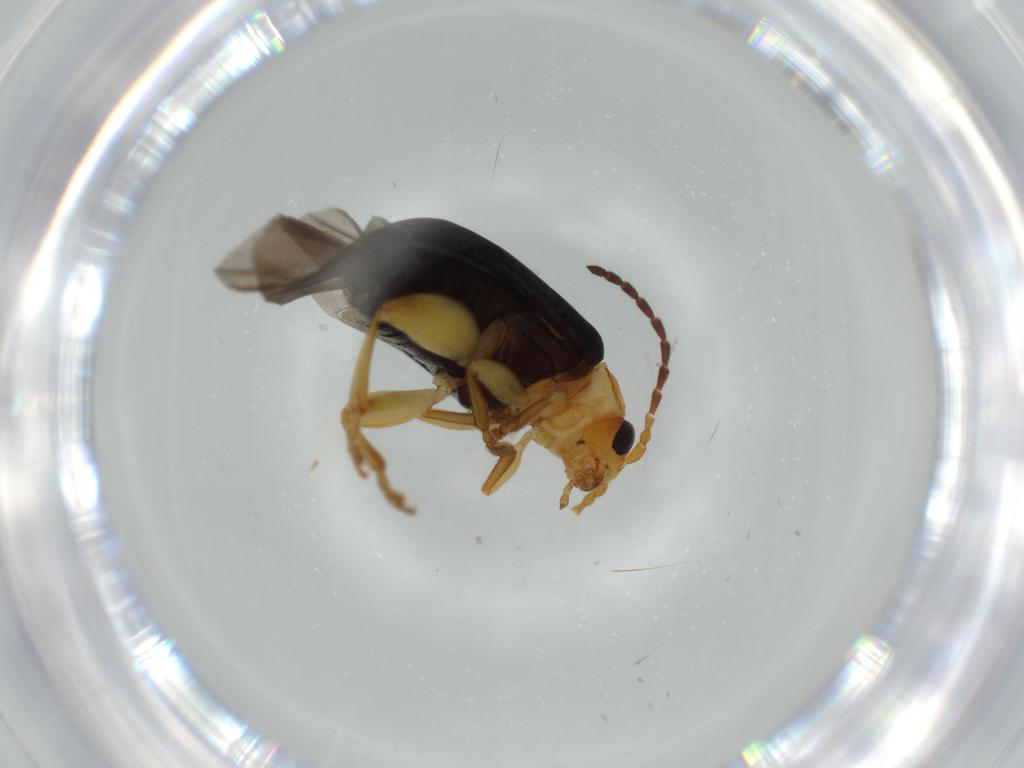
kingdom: Animalia
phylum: Arthropoda
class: Insecta
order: Coleoptera
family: Chrysomelidae
